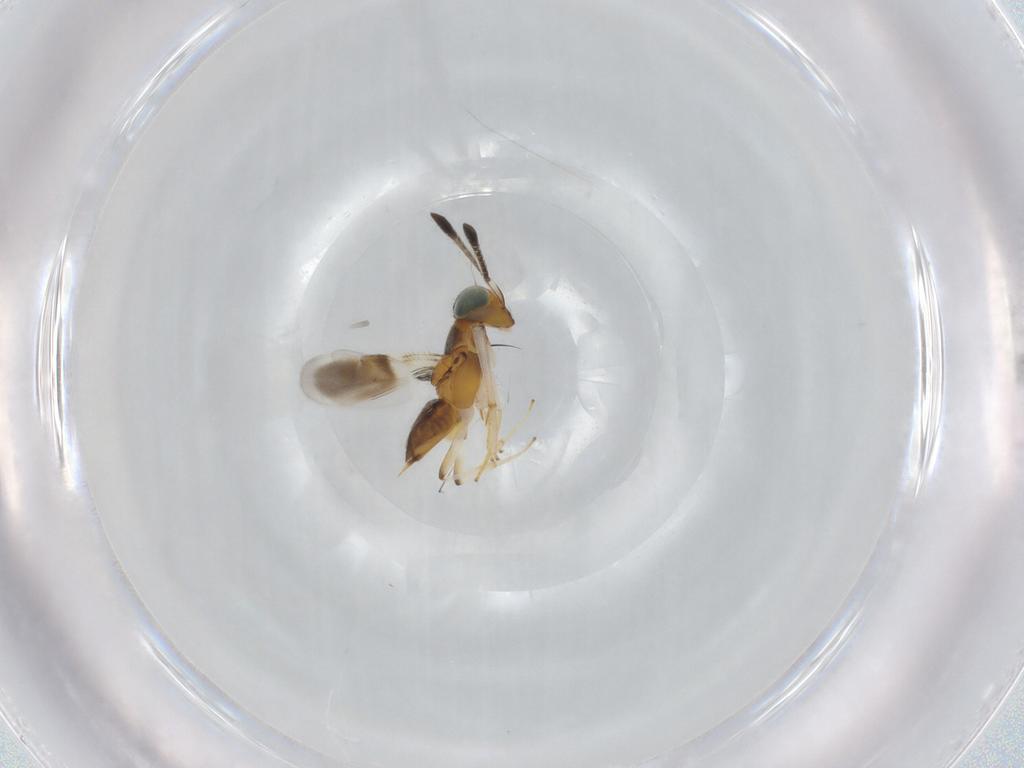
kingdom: Animalia
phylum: Arthropoda
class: Insecta
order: Hymenoptera
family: Encyrtidae
